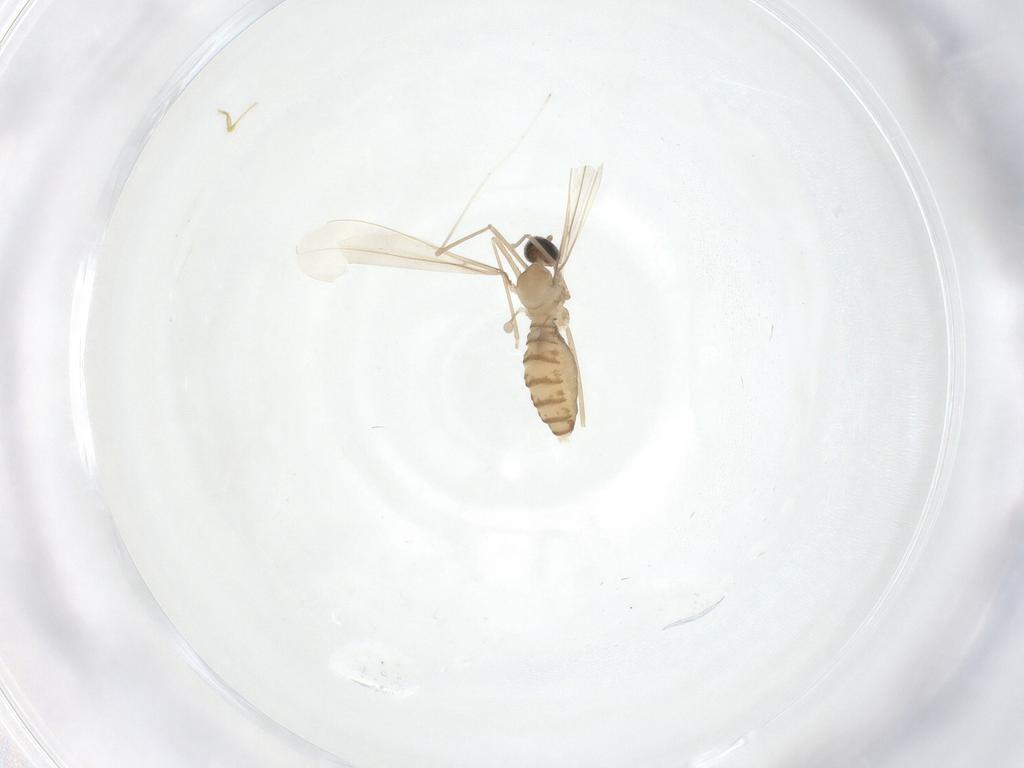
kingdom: Animalia
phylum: Arthropoda
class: Insecta
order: Diptera
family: Cecidomyiidae
